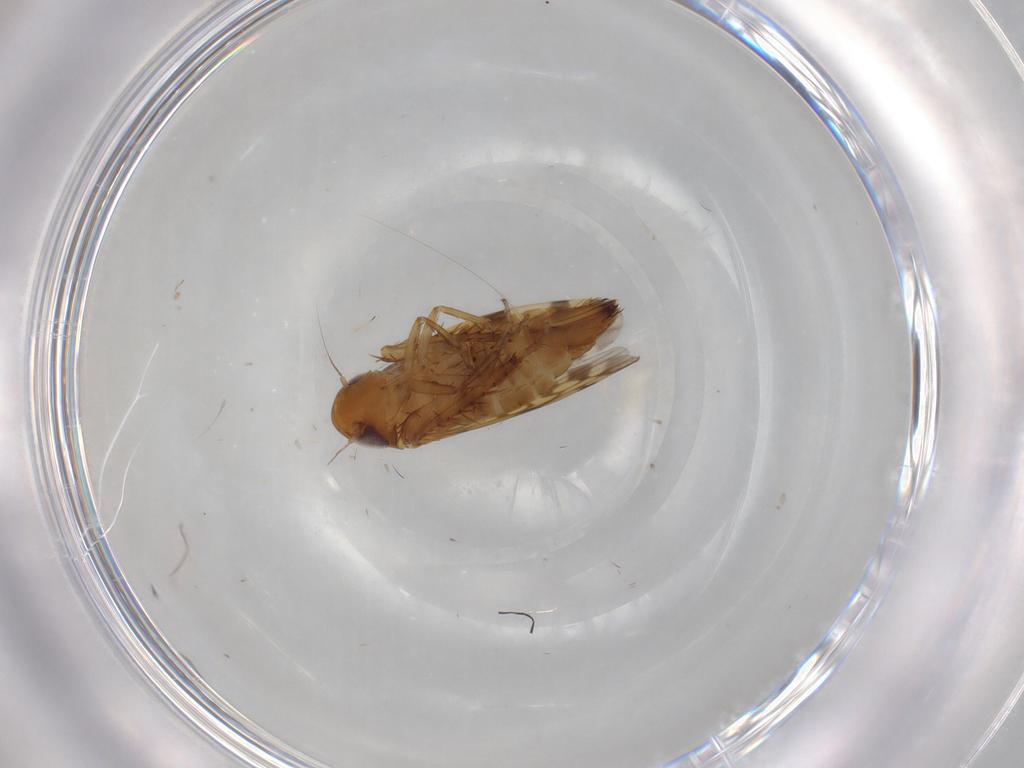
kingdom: Animalia
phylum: Arthropoda
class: Insecta
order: Hemiptera
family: Cicadellidae
